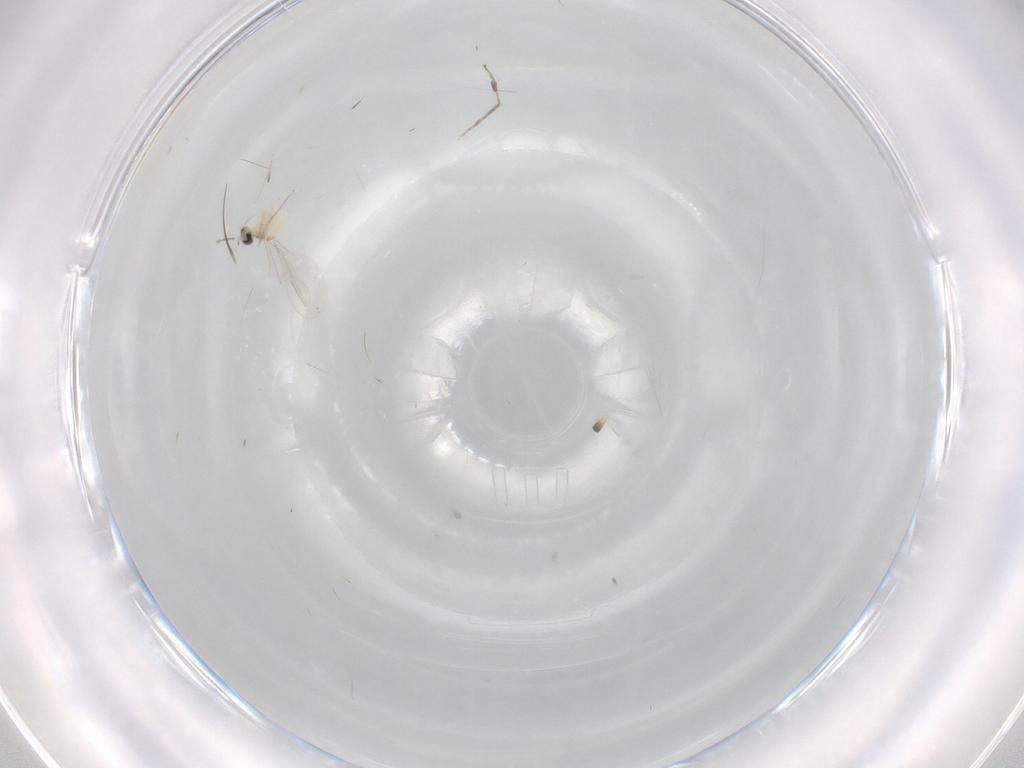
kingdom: Animalia
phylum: Arthropoda
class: Insecta
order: Diptera
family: Cecidomyiidae
